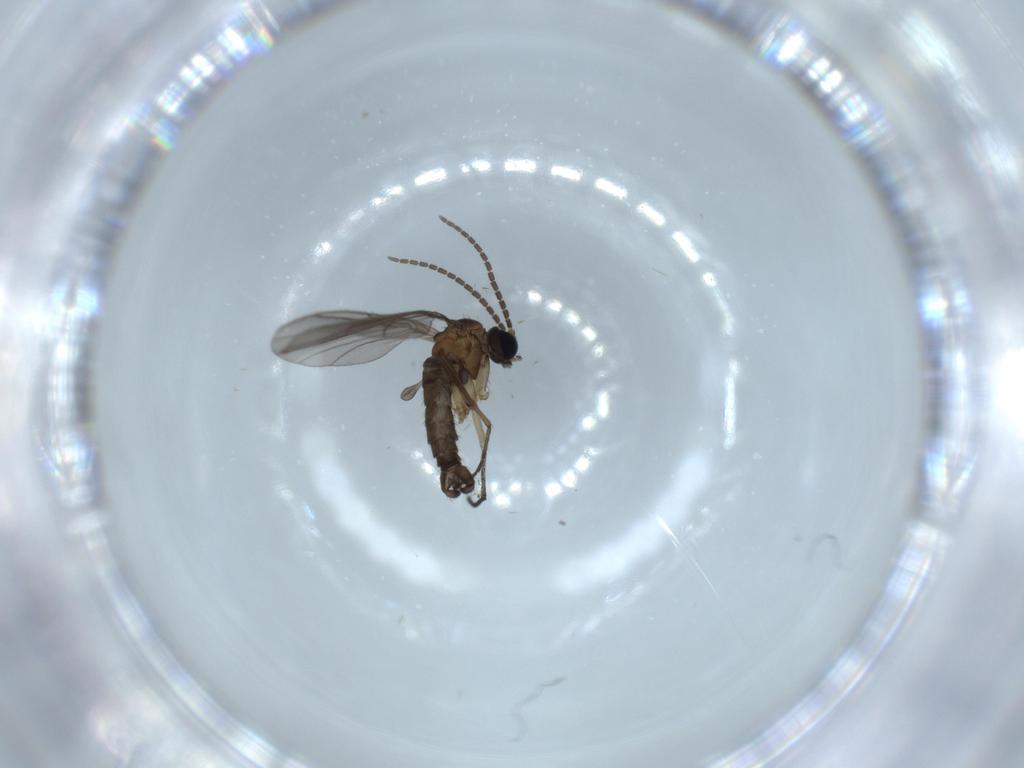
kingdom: Animalia
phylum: Arthropoda
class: Insecta
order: Diptera
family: Sciaridae
